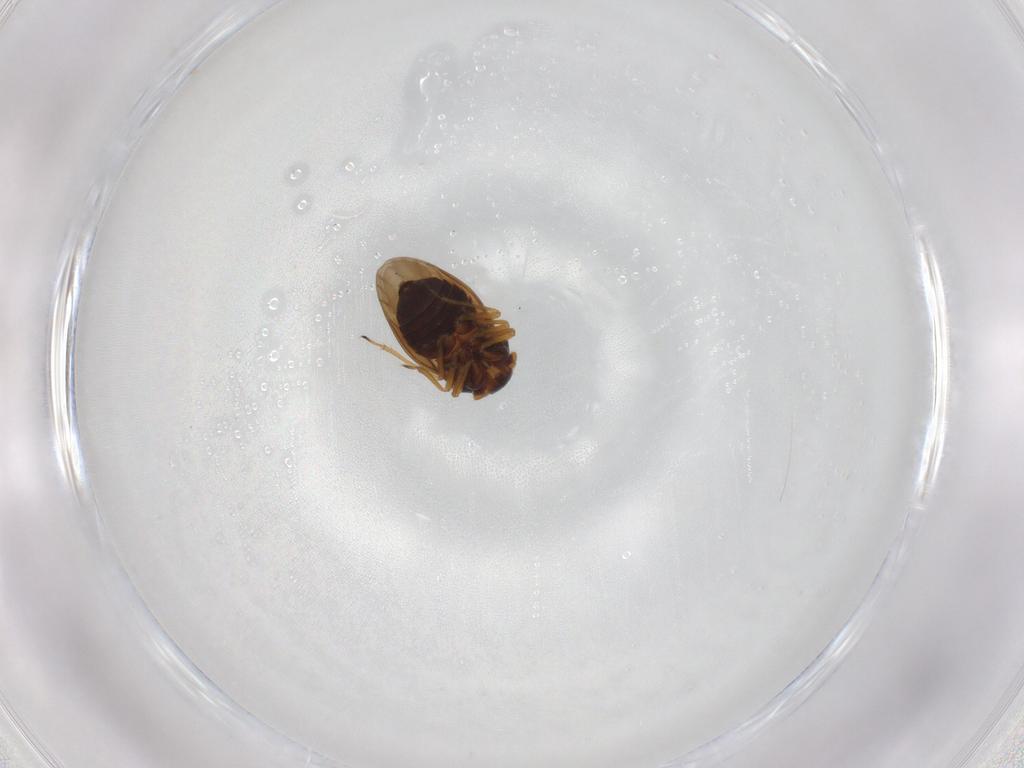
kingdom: Animalia
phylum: Arthropoda
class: Insecta
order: Hemiptera
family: Schizopteridae
